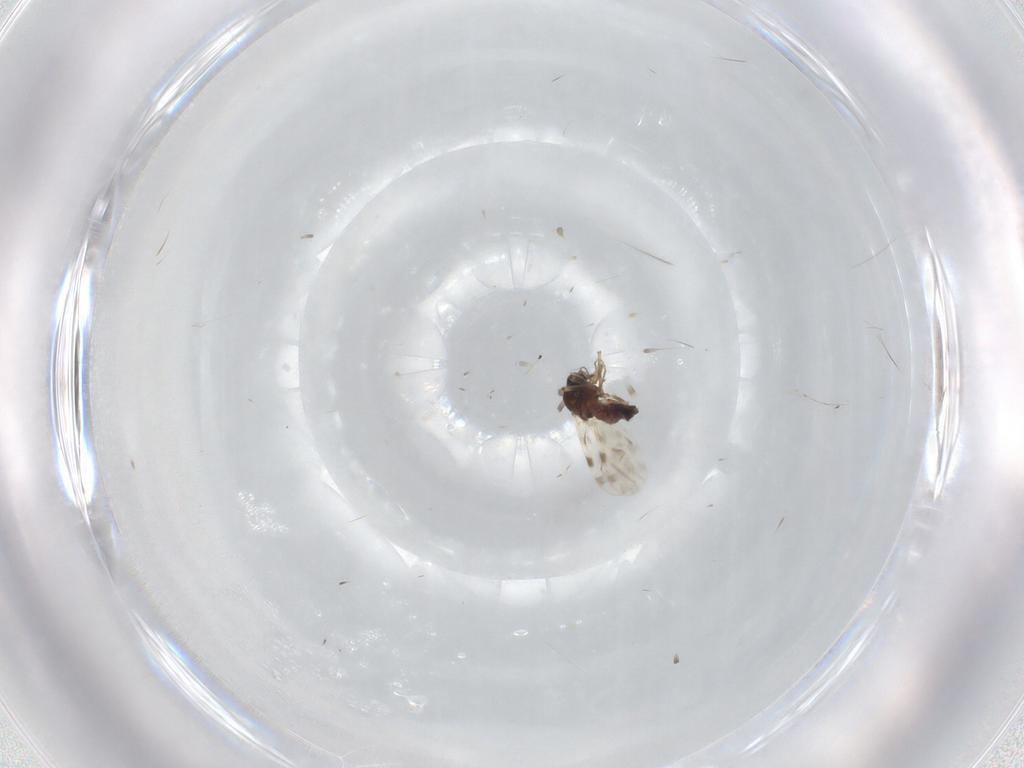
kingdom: Animalia
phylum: Arthropoda
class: Insecta
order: Diptera
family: Ceratopogonidae
